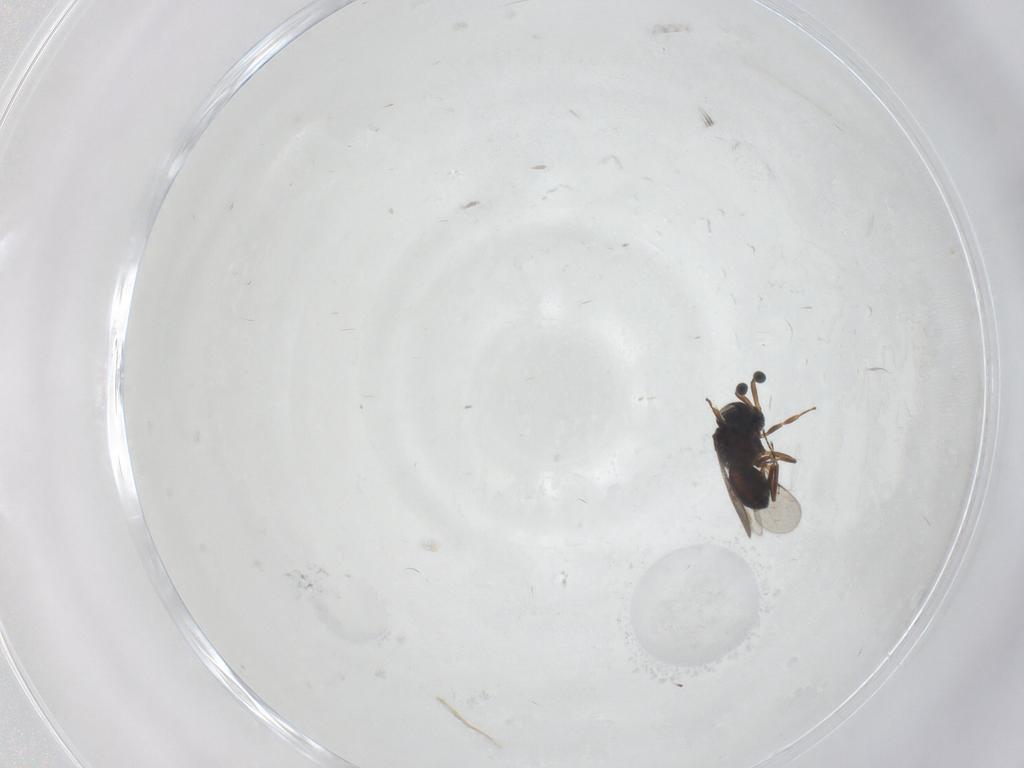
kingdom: Animalia
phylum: Arthropoda
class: Insecta
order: Hymenoptera
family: Scelionidae
